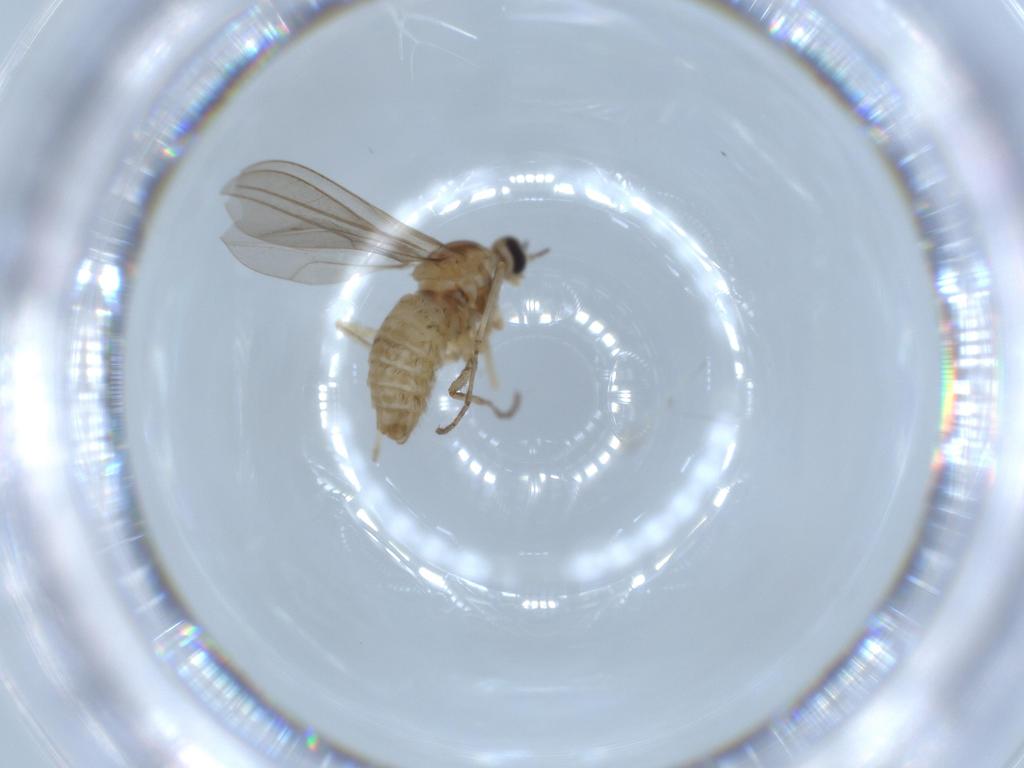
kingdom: Animalia
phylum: Arthropoda
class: Insecta
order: Diptera
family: Cecidomyiidae
